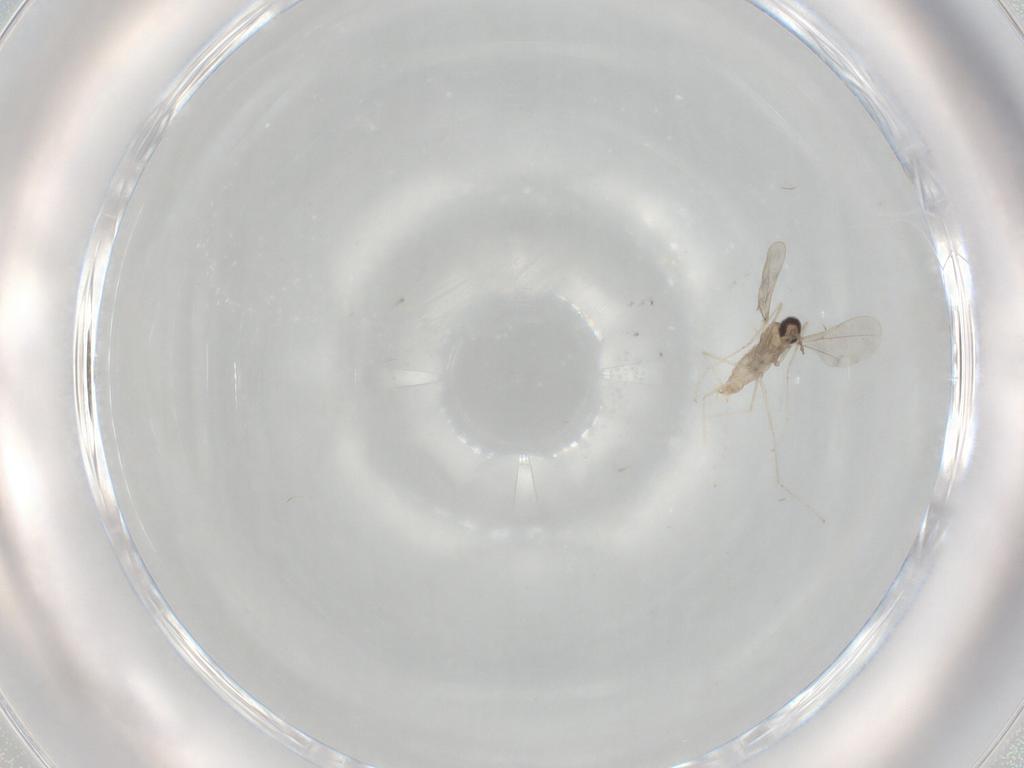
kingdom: Animalia
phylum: Arthropoda
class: Insecta
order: Diptera
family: Cecidomyiidae
